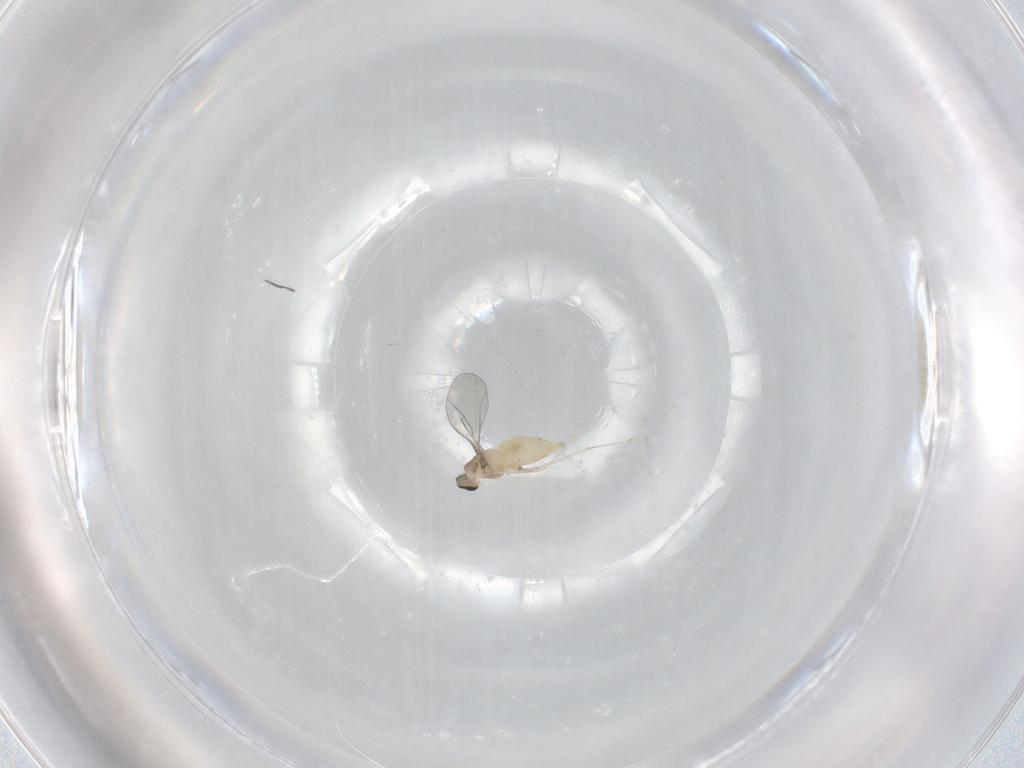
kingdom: Animalia
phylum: Arthropoda
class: Insecta
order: Diptera
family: Cecidomyiidae
